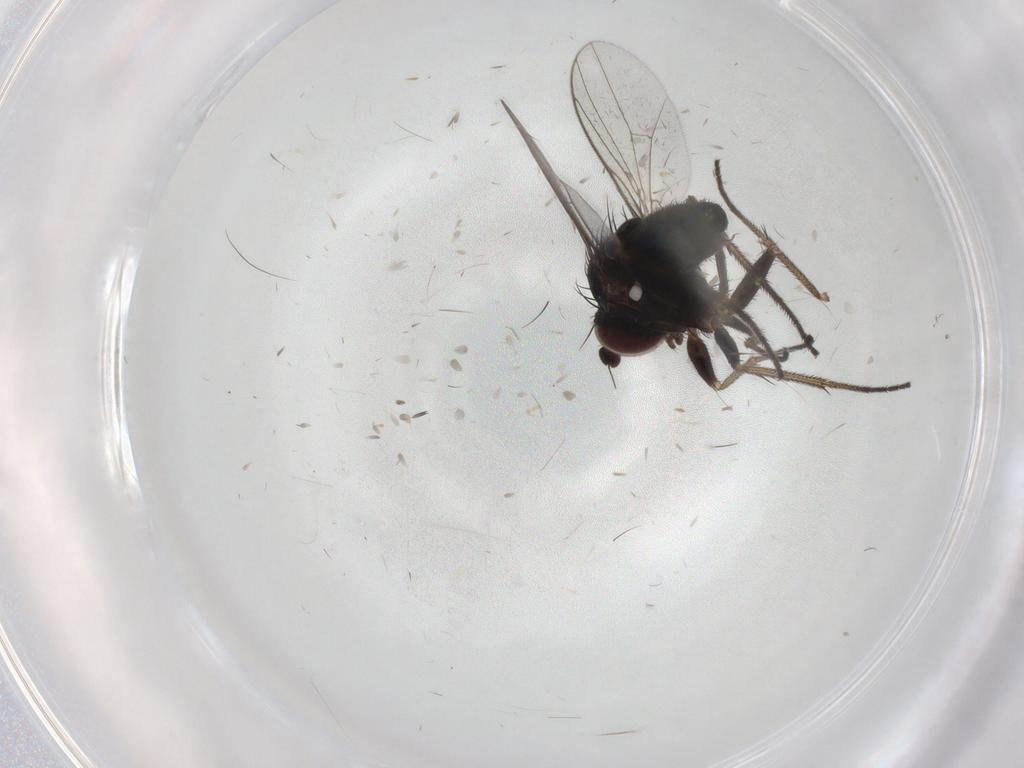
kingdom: Animalia
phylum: Arthropoda
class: Insecta
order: Diptera
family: Dolichopodidae
